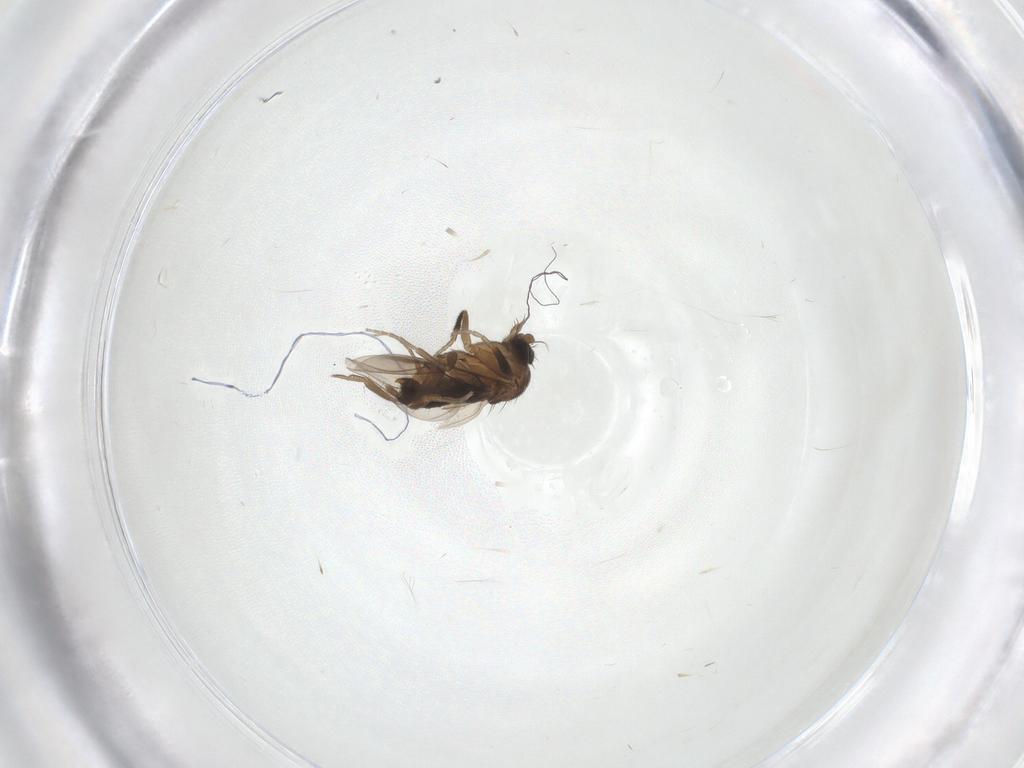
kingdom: Animalia
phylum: Arthropoda
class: Insecta
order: Diptera
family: Phoridae
